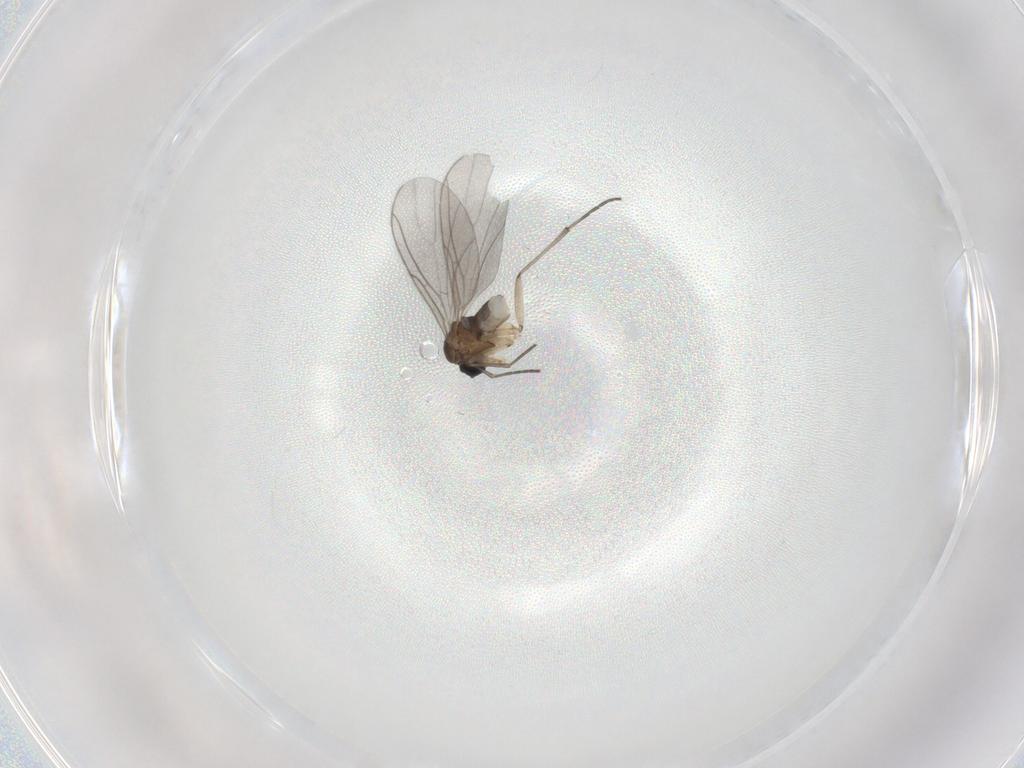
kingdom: Animalia
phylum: Arthropoda
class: Insecta
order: Diptera
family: Sciaridae
